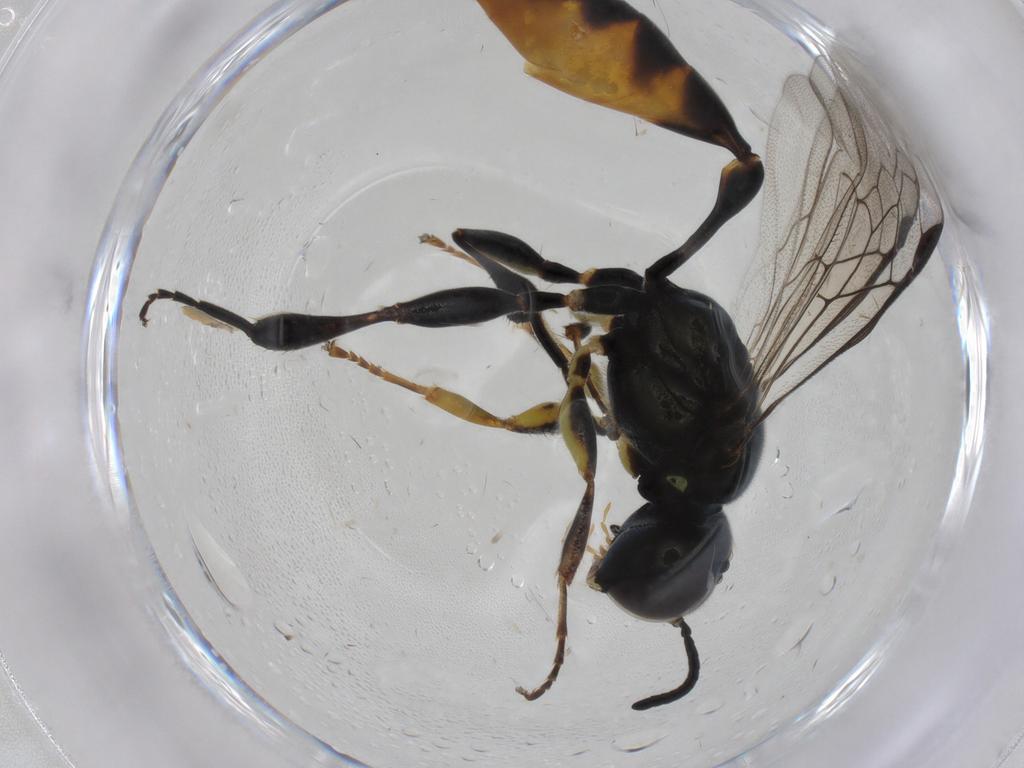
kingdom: Animalia
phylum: Arthropoda
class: Insecta
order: Hymenoptera
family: Crabronidae
